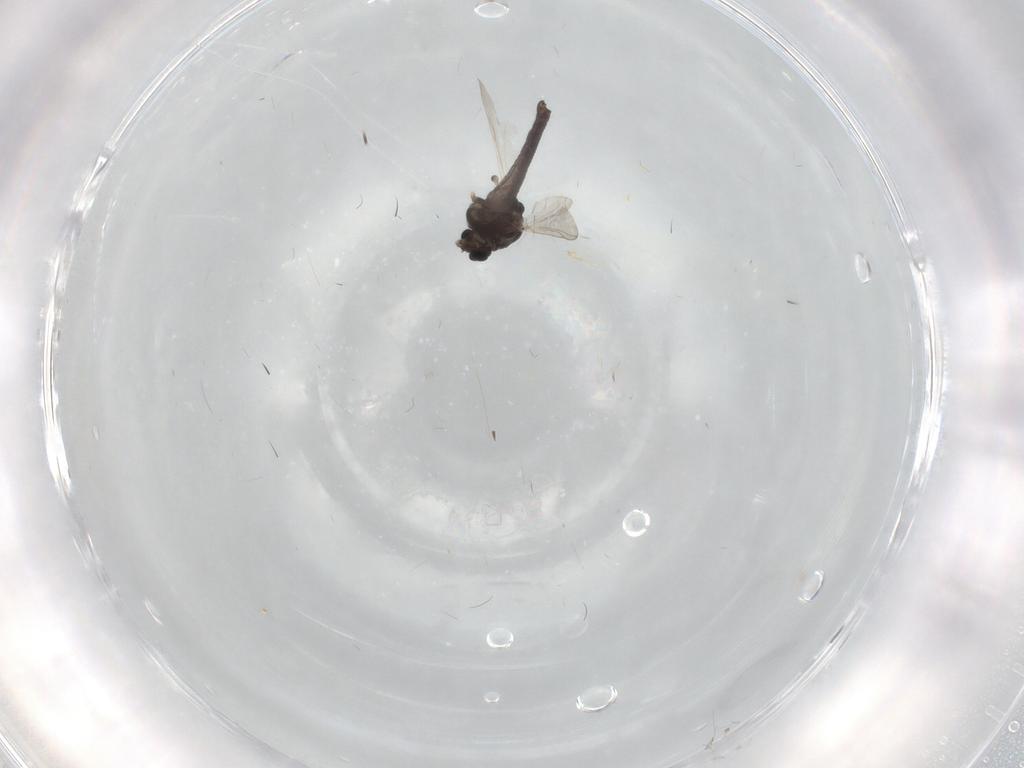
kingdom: Animalia
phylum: Arthropoda
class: Insecta
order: Diptera
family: Chironomidae
